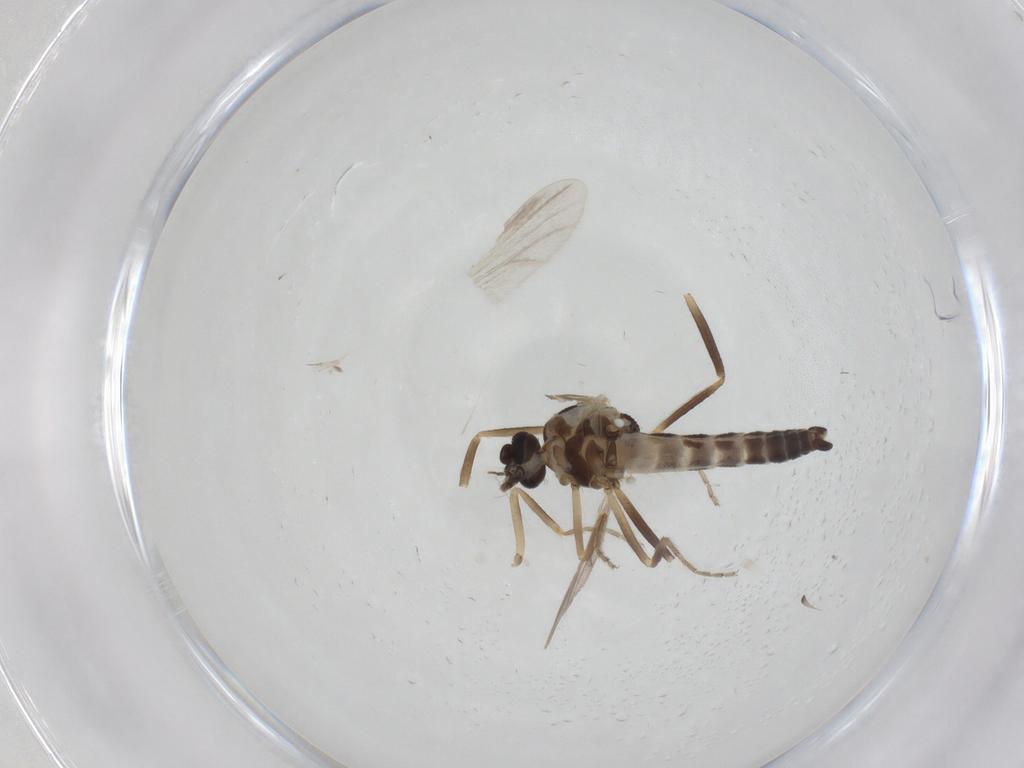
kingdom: Animalia
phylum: Arthropoda
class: Insecta
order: Diptera
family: Ceratopogonidae
